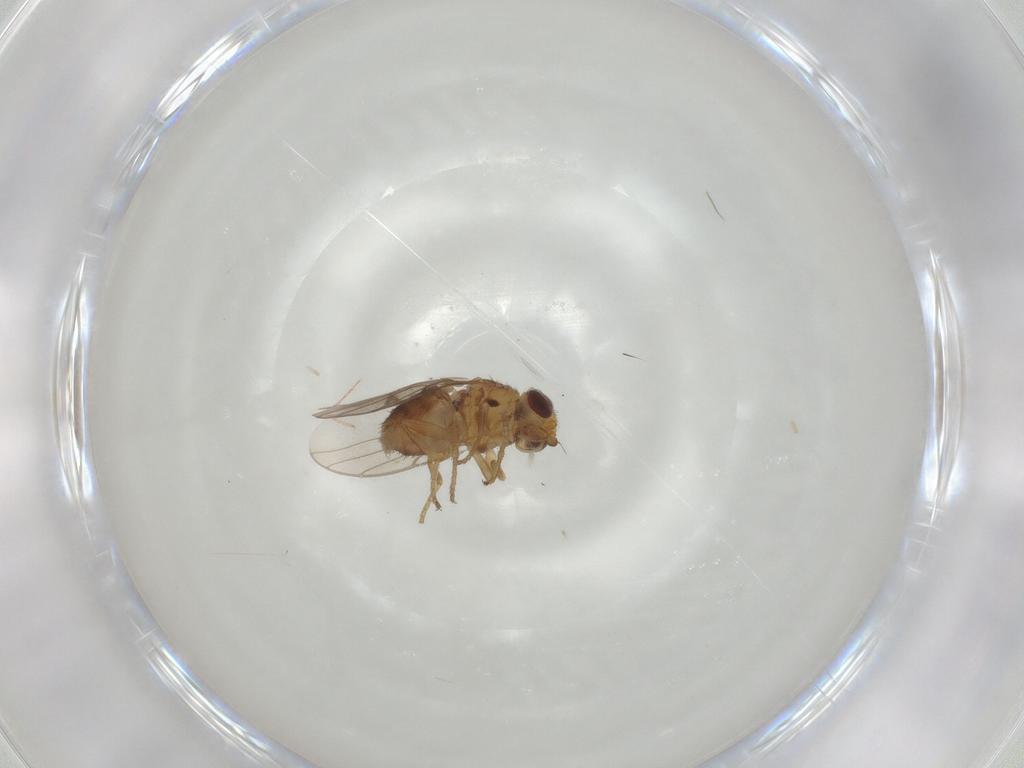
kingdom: Animalia
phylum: Arthropoda
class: Insecta
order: Diptera
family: Chloropidae
